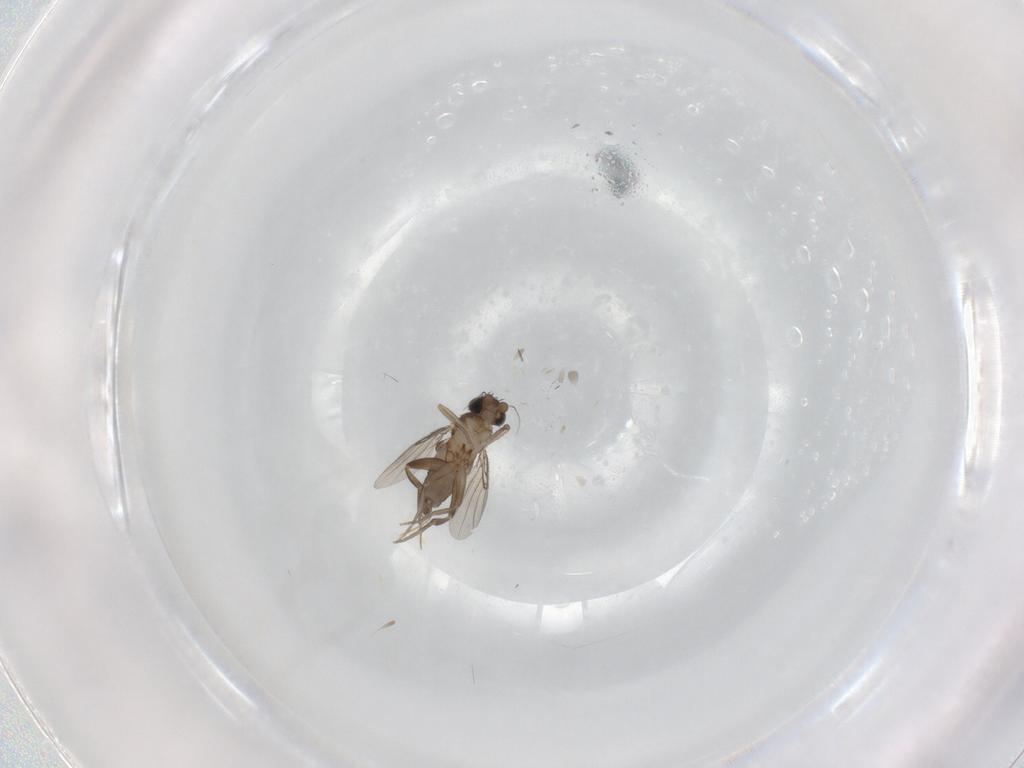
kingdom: Animalia
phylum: Arthropoda
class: Insecta
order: Diptera
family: Phoridae
